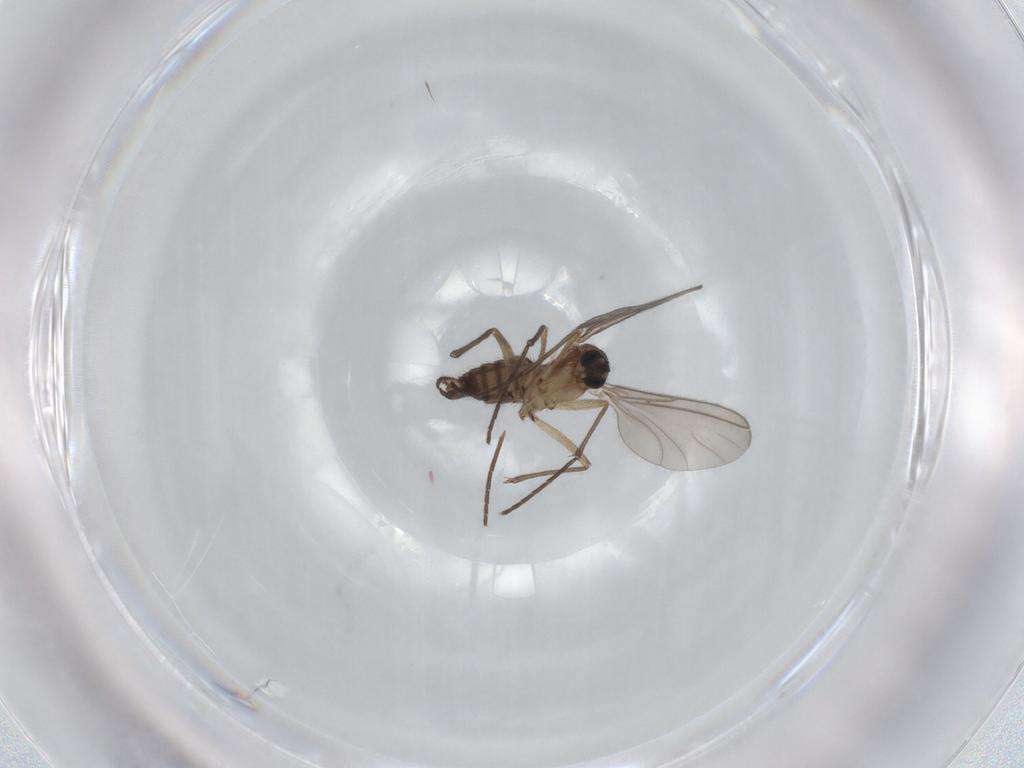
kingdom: Animalia
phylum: Arthropoda
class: Insecta
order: Diptera
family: Sciaridae
